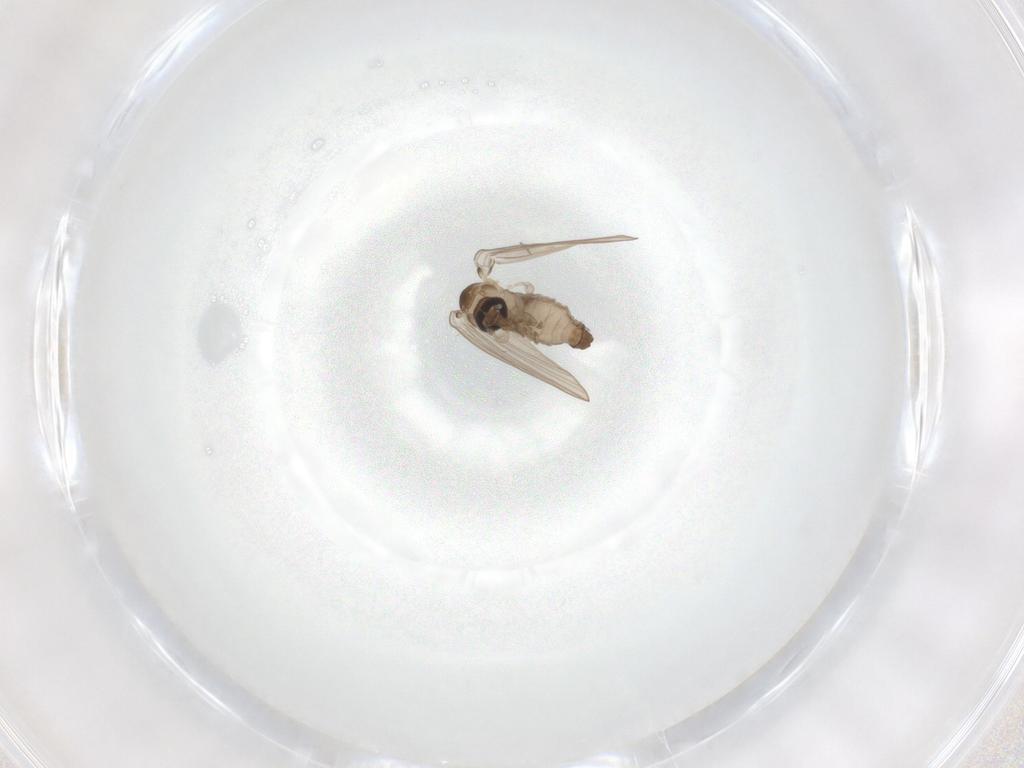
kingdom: Animalia
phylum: Arthropoda
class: Insecta
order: Diptera
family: Psychodidae
